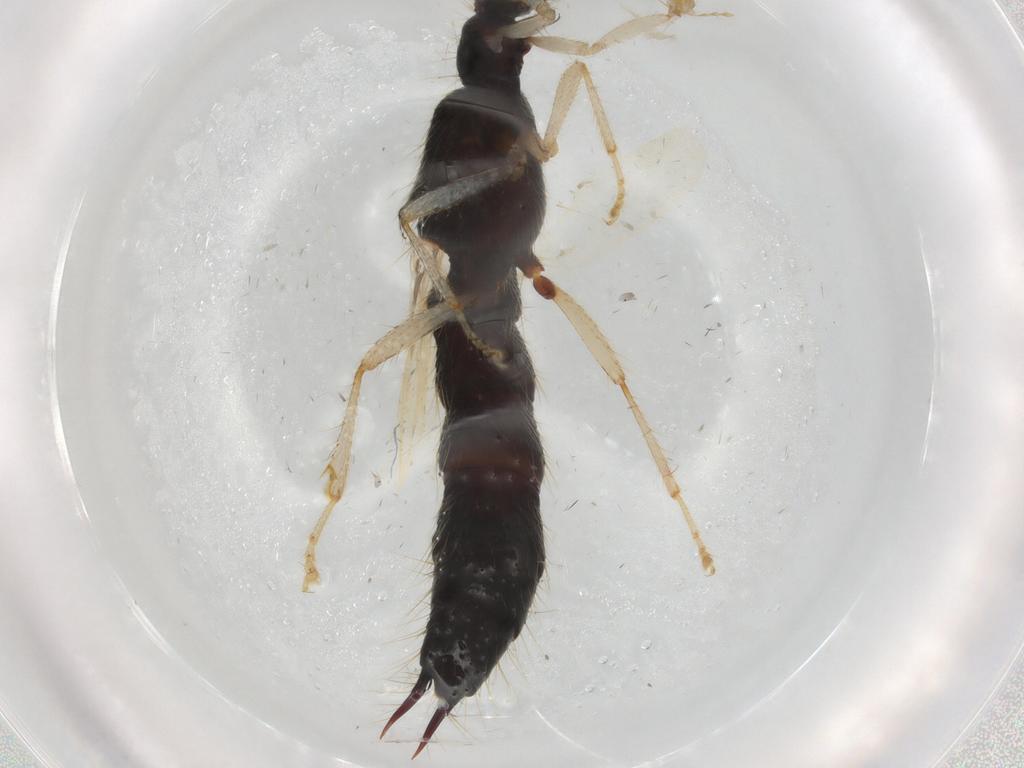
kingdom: Animalia
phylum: Arthropoda
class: Insecta
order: Coleoptera
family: Staphylinidae
